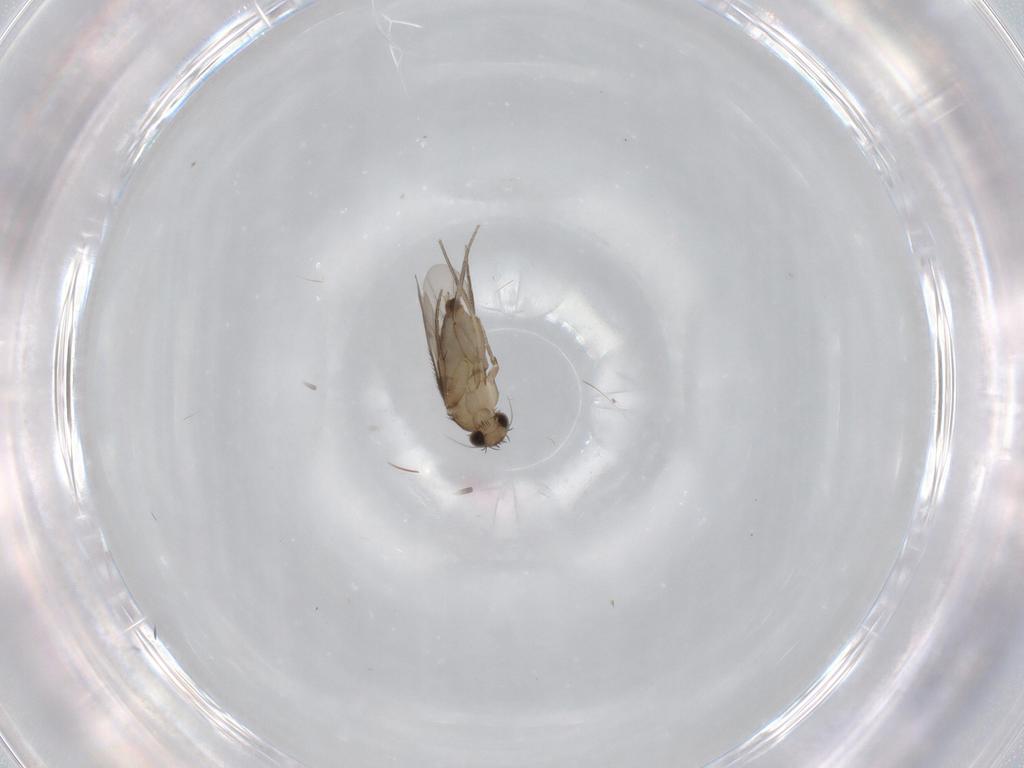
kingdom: Animalia
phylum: Arthropoda
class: Insecta
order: Diptera
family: Phoridae
